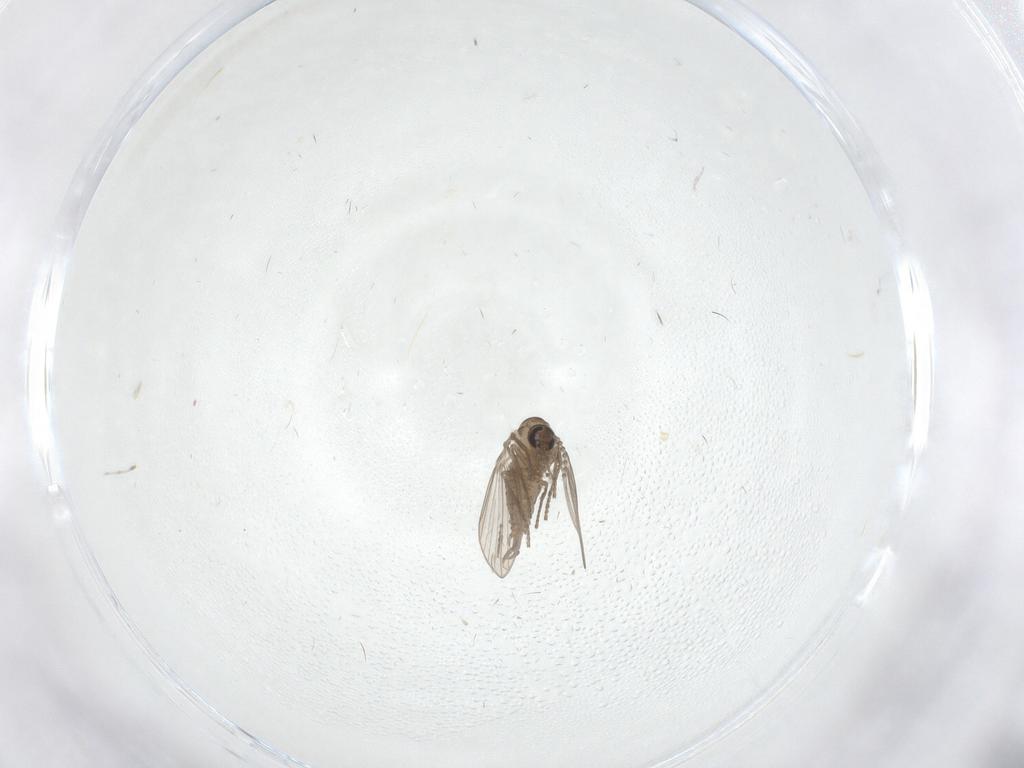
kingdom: Animalia
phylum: Arthropoda
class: Insecta
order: Diptera
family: Psychodidae
